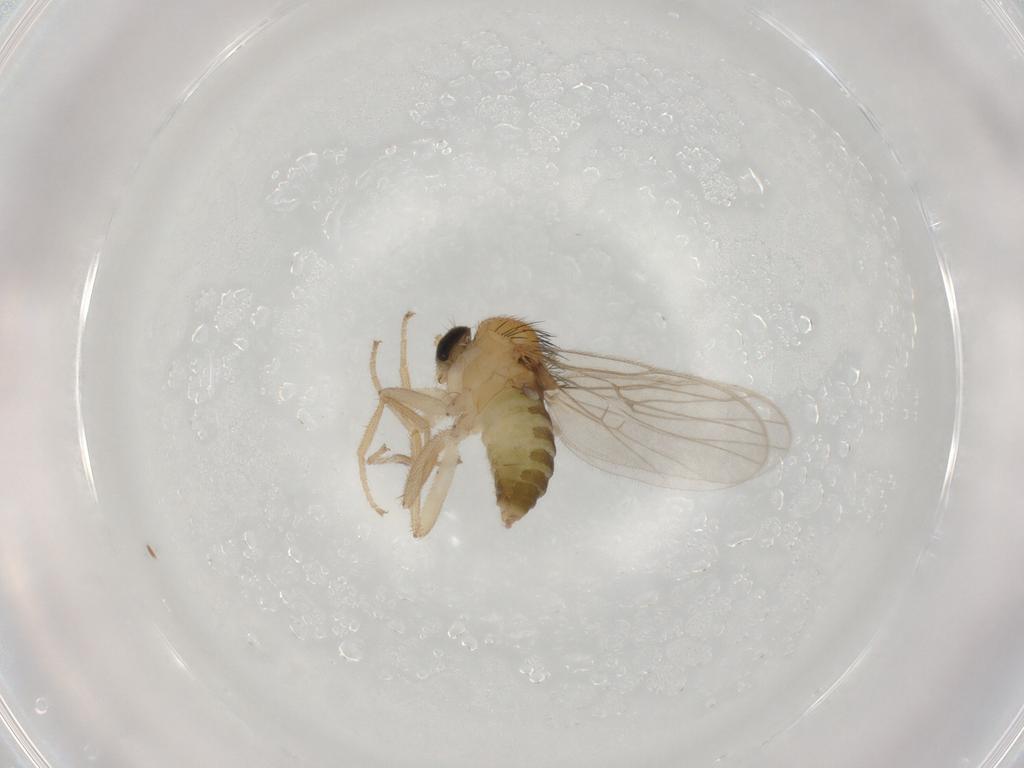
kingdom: Animalia
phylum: Arthropoda
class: Insecta
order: Diptera
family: Hybotidae
